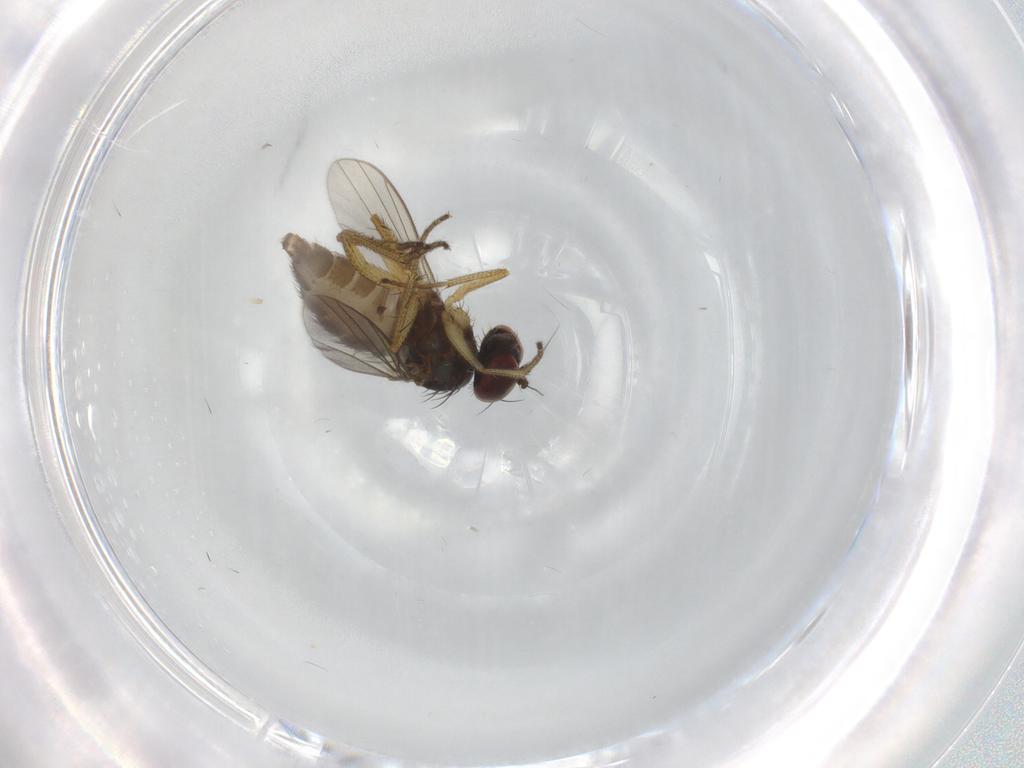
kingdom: Animalia
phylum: Arthropoda
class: Insecta
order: Diptera
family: Dolichopodidae
